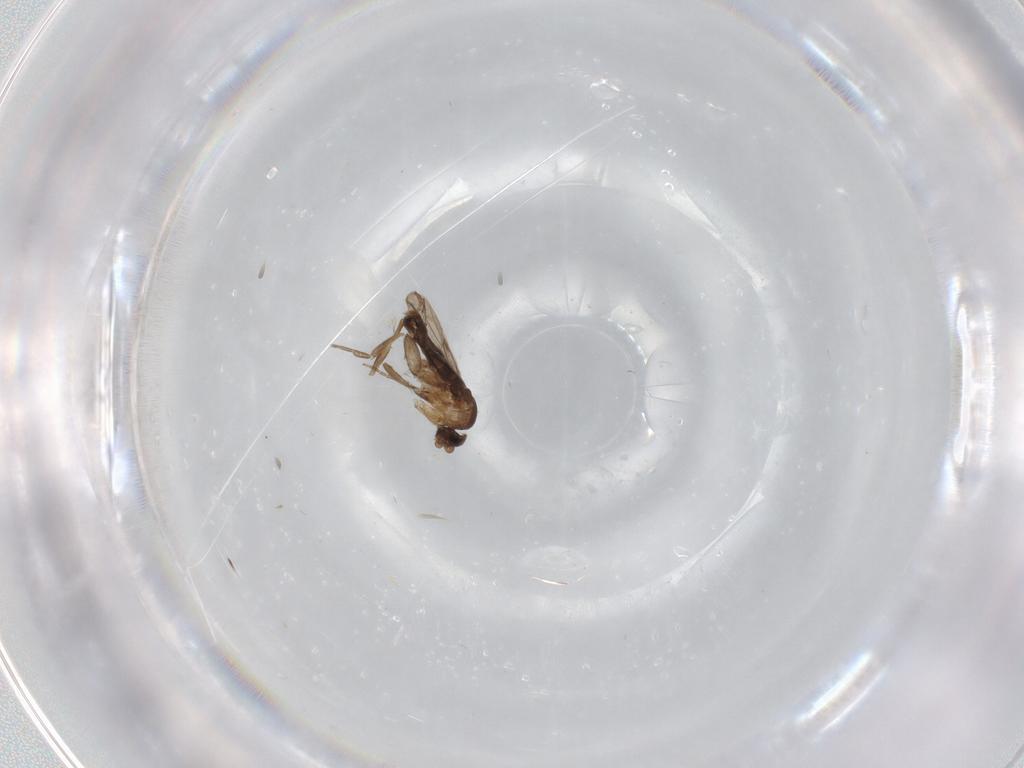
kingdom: Animalia
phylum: Arthropoda
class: Insecta
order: Diptera
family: Phoridae
